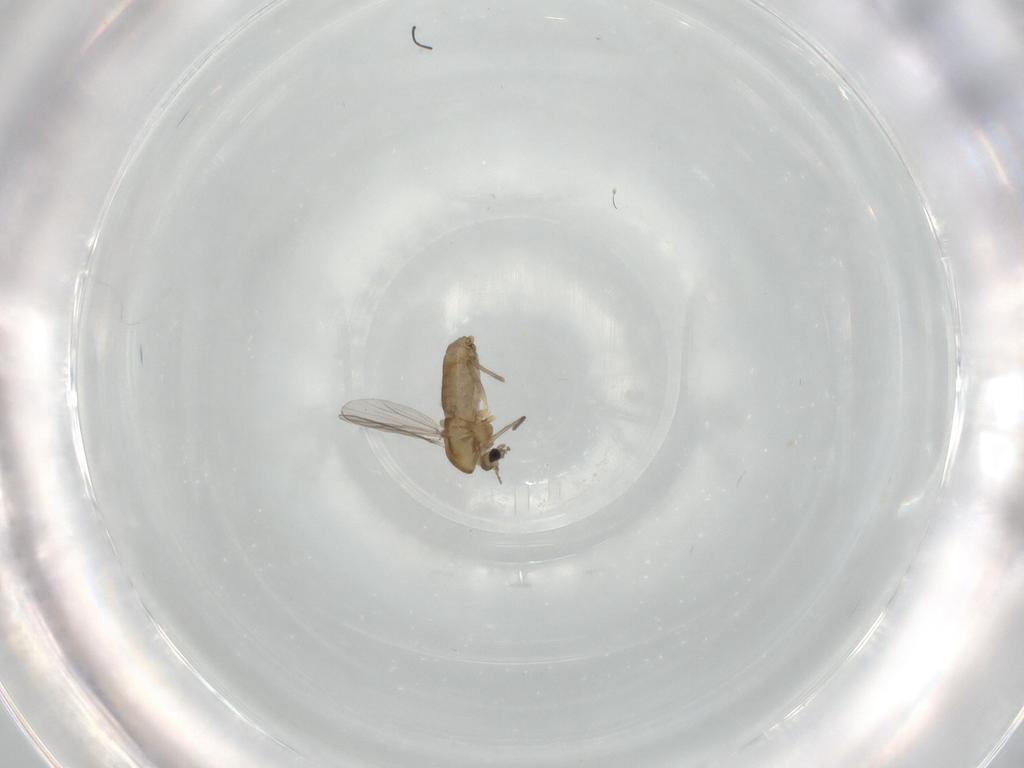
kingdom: Animalia
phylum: Arthropoda
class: Insecta
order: Diptera
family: Chironomidae
